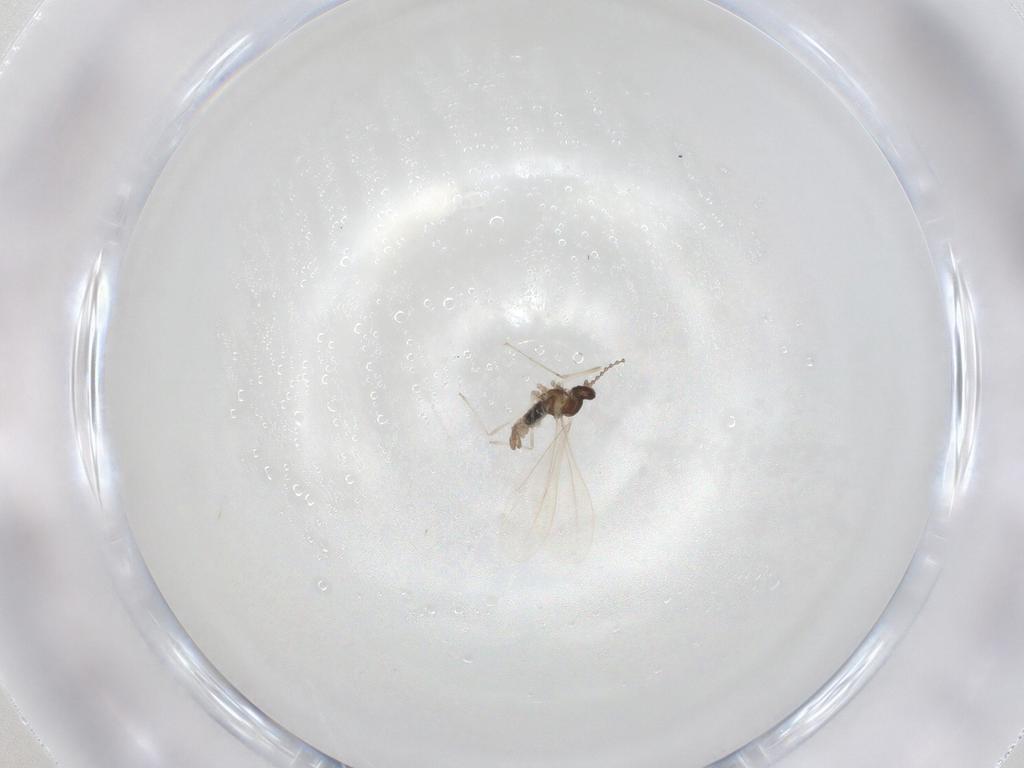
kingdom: Animalia
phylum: Arthropoda
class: Insecta
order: Diptera
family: Cecidomyiidae
